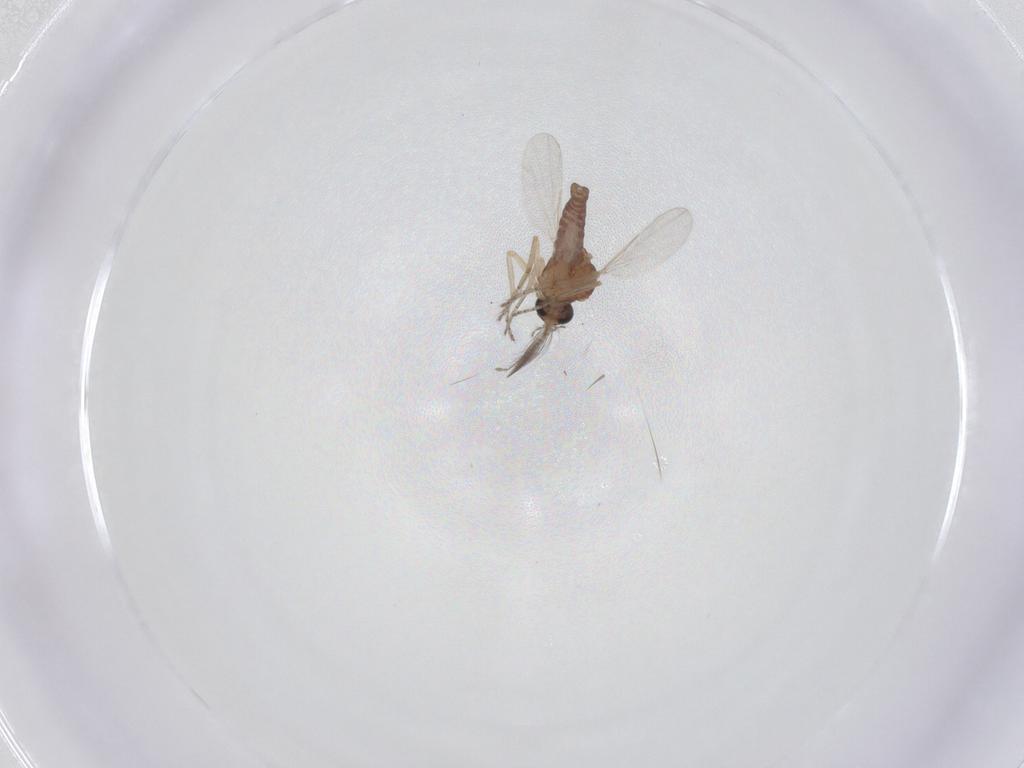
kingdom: Animalia
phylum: Arthropoda
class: Insecta
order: Diptera
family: Ceratopogonidae
